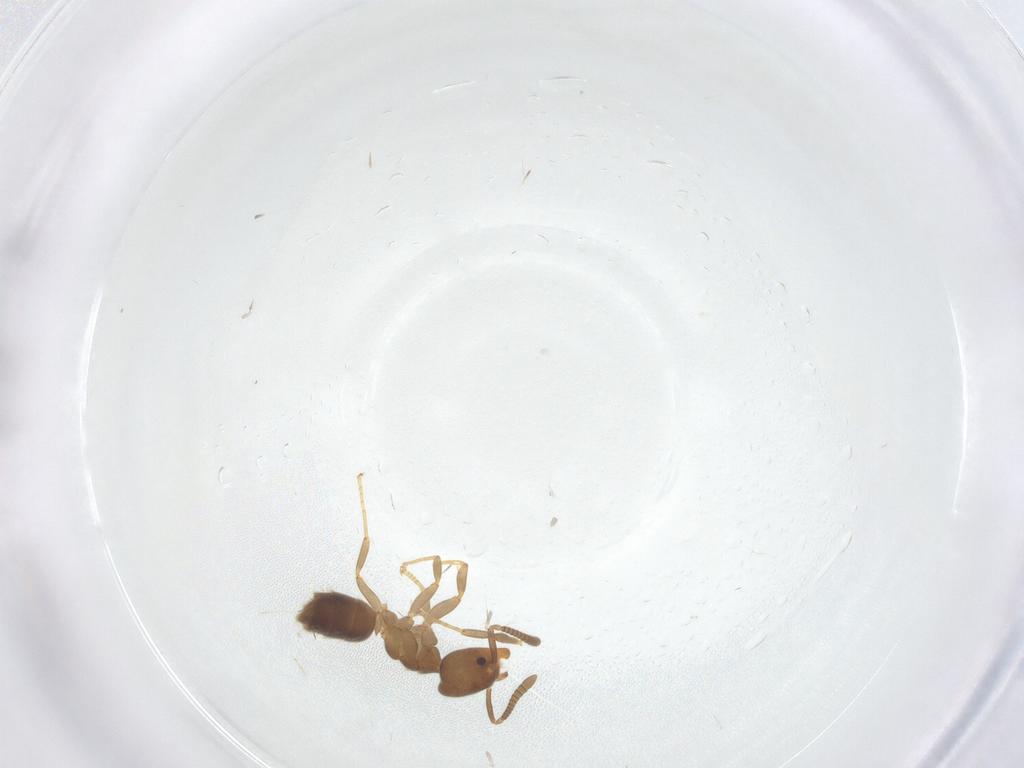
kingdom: Animalia
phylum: Arthropoda
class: Insecta
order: Hymenoptera
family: Formicidae
